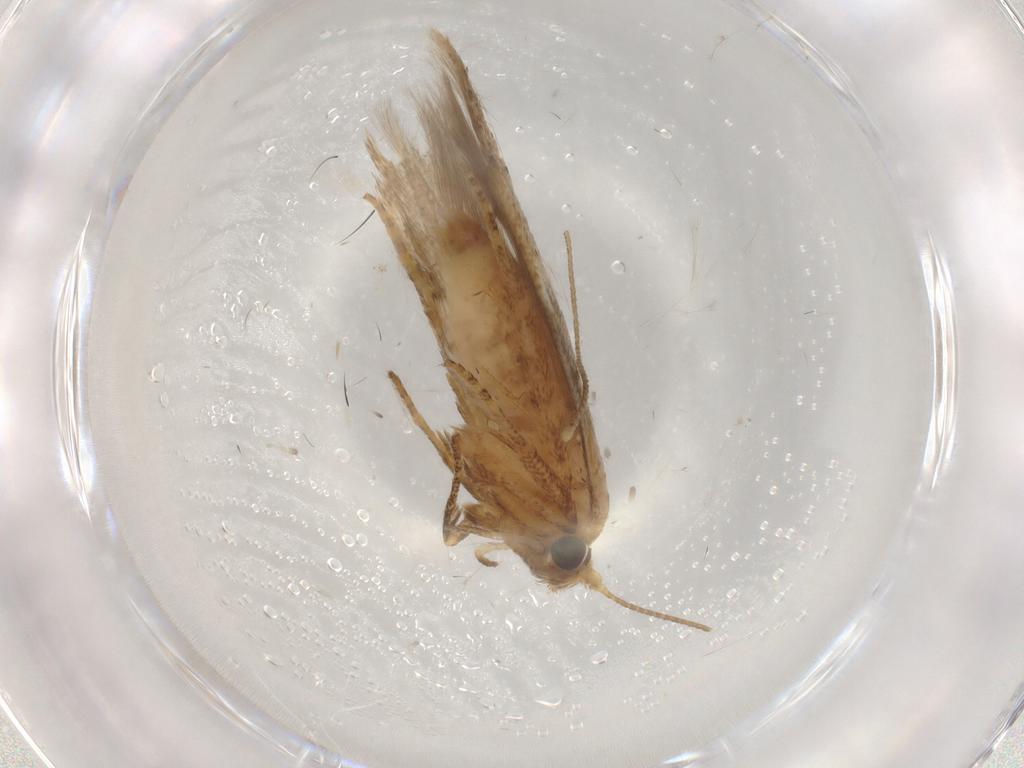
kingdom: Animalia
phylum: Arthropoda
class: Insecta
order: Lepidoptera
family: Blastobasidae
